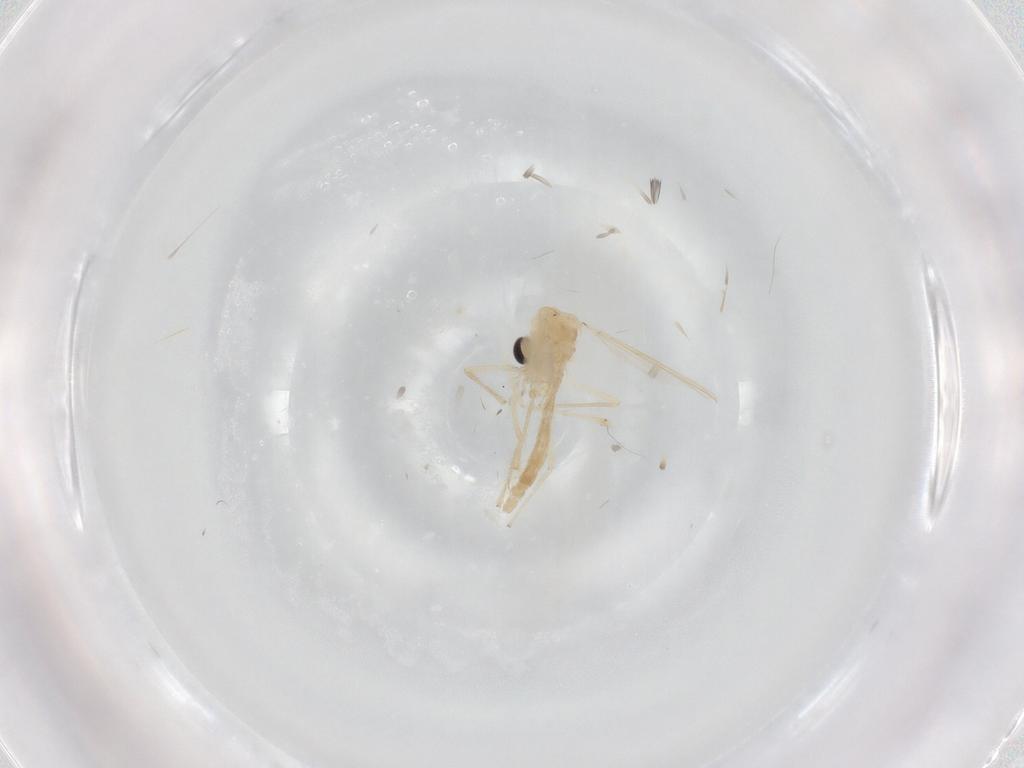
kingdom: Animalia
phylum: Arthropoda
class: Insecta
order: Diptera
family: Chironomidae
